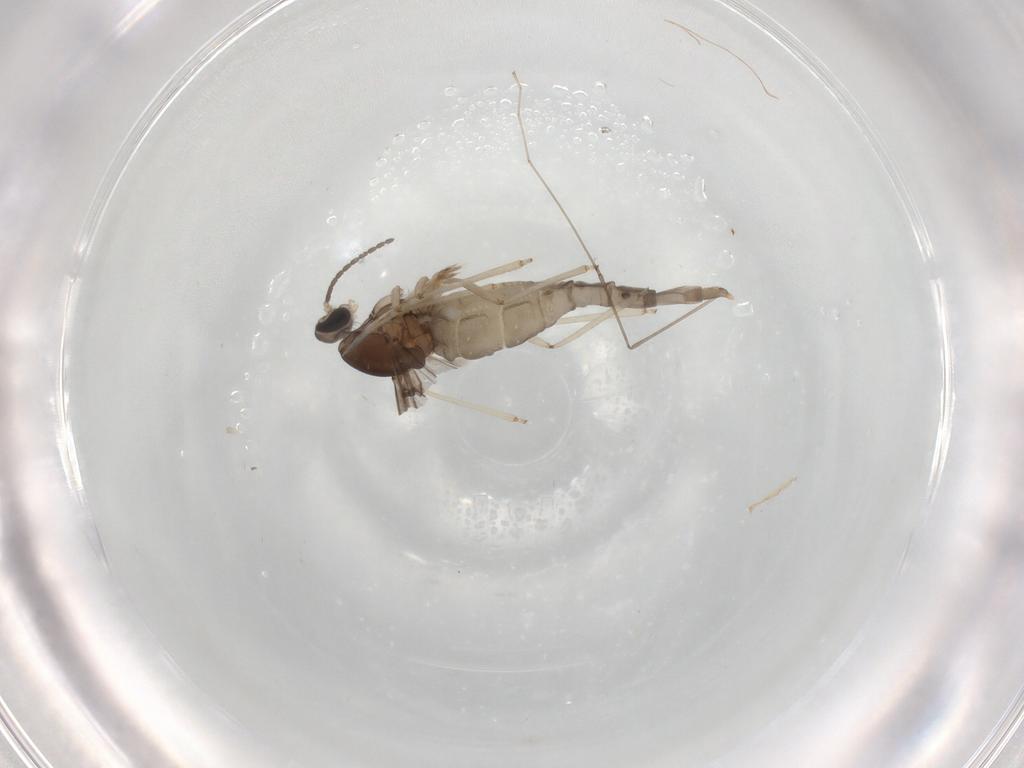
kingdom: Animalia
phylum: Arthropoda
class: Insecta
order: Diptera
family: Cecidomyiidae
